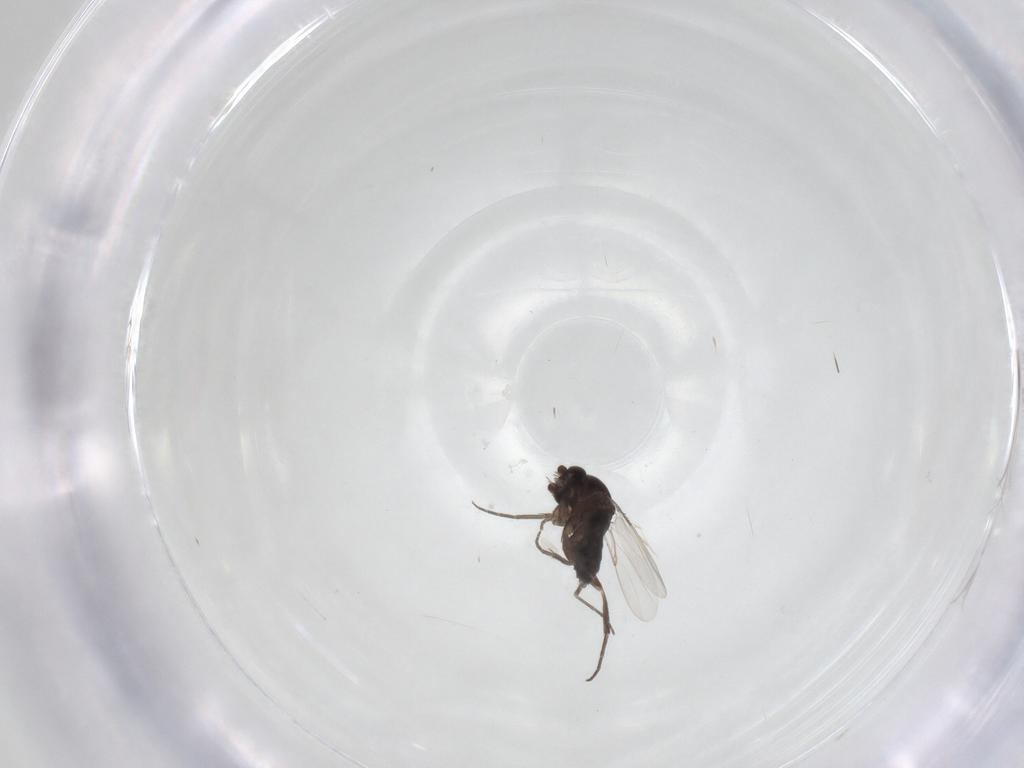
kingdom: Animalia
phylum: Arthropoda
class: Insecta
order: Diptera
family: Phoridae
